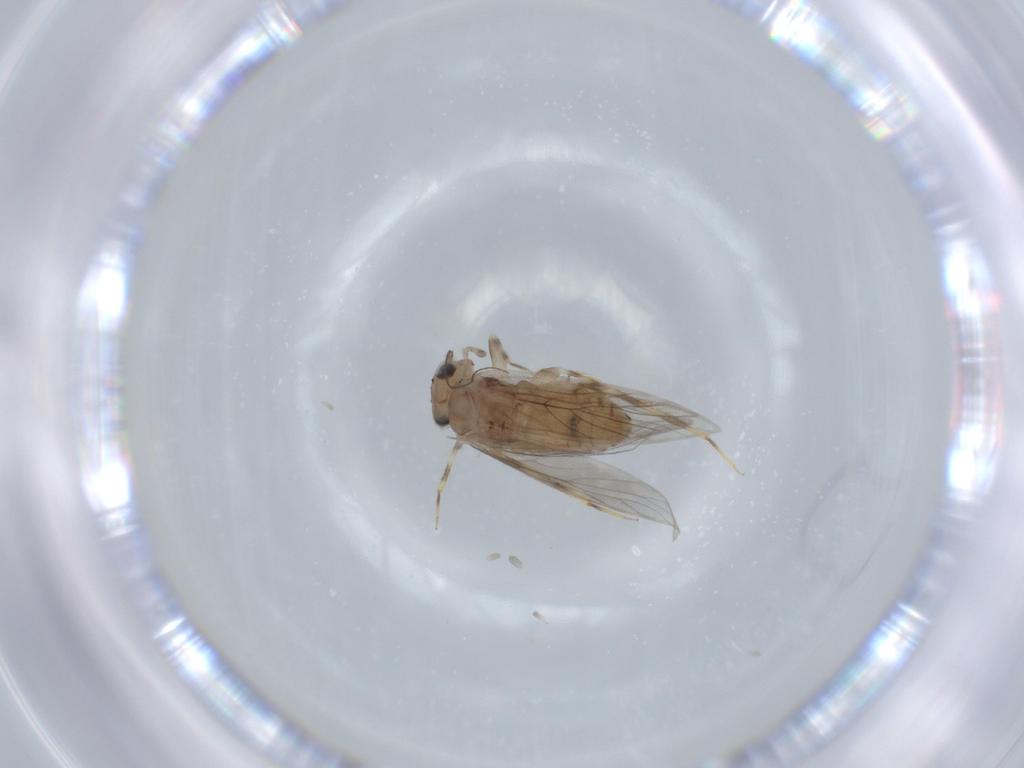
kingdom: Animalia
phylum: Arthropoda
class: Insecta
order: Psocodea
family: Lepidopsocidae
